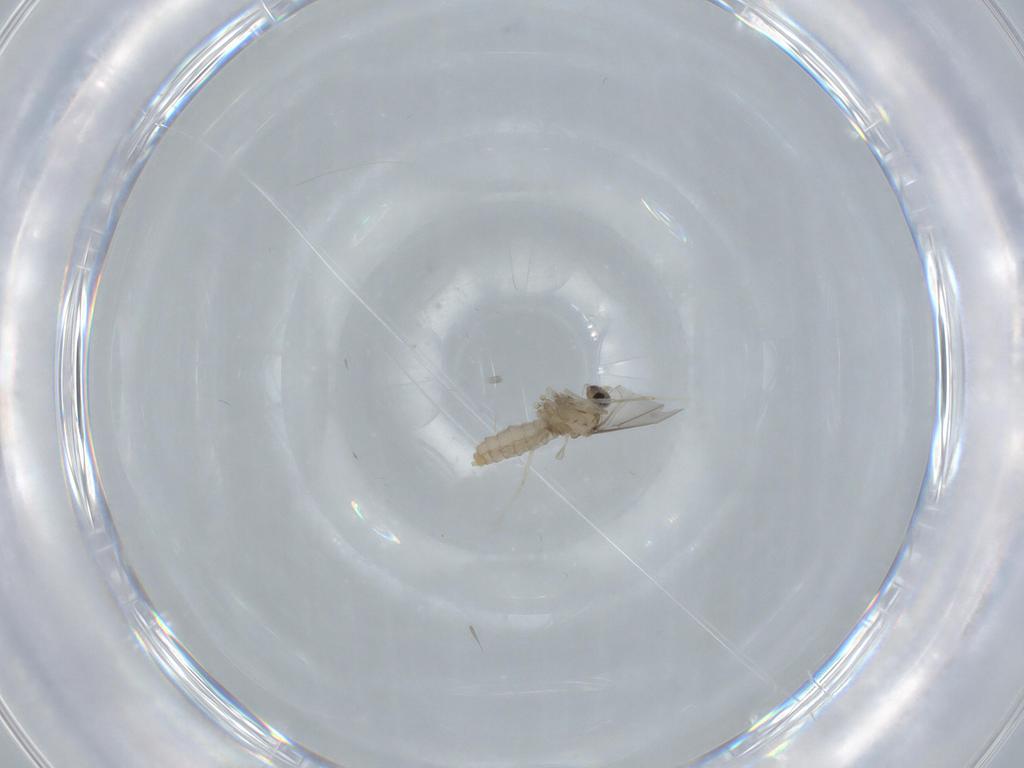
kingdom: Animalia
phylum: Arthropoda
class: Insecta
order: Diptera
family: Cecidomyiidae
